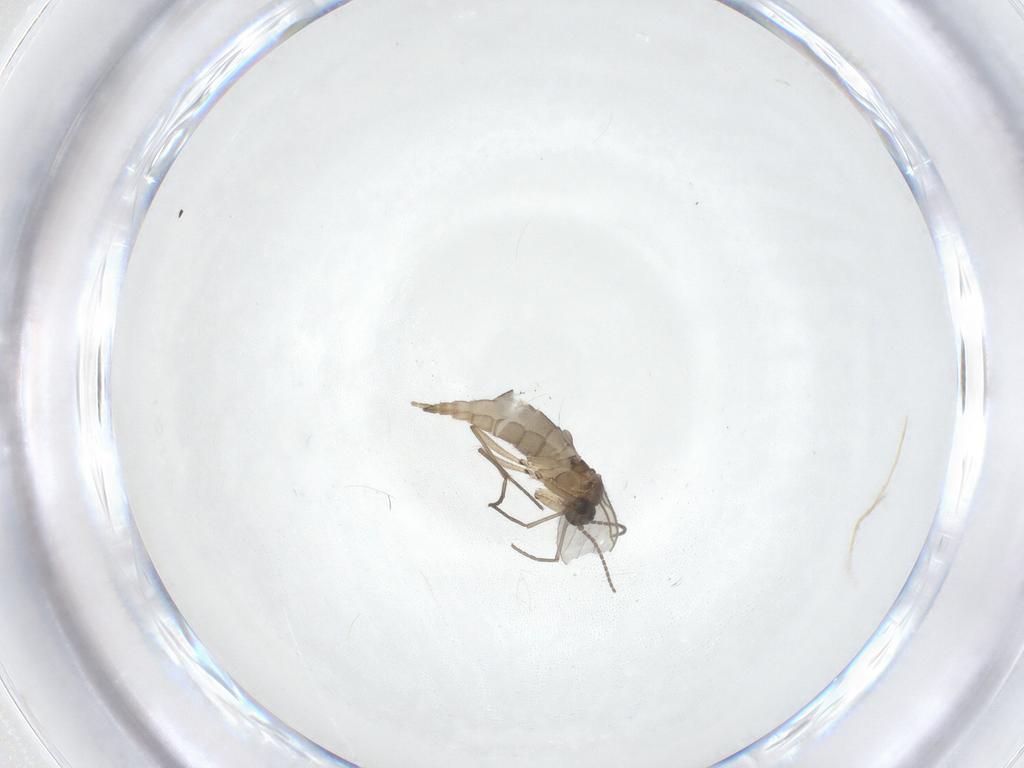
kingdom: Animalia
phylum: Arthropoda
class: Insecta
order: Diptera
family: Sciaridae
